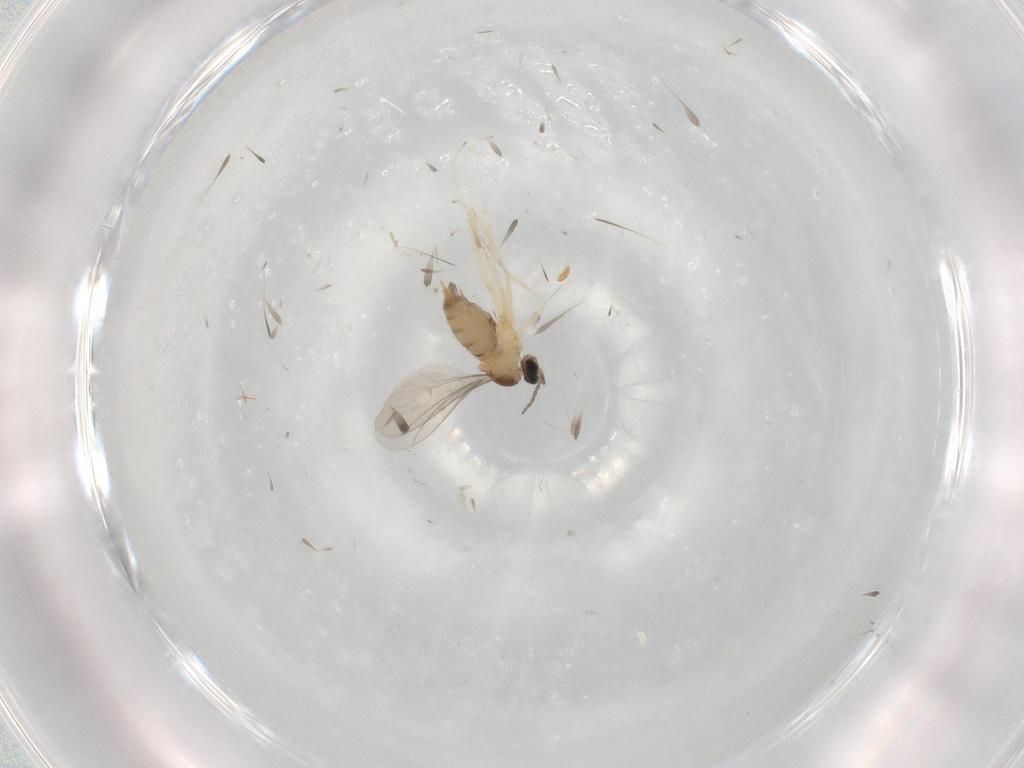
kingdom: Animalia
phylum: Arthropoda
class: Insecta
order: Diptera
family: Cecidomyiidae
